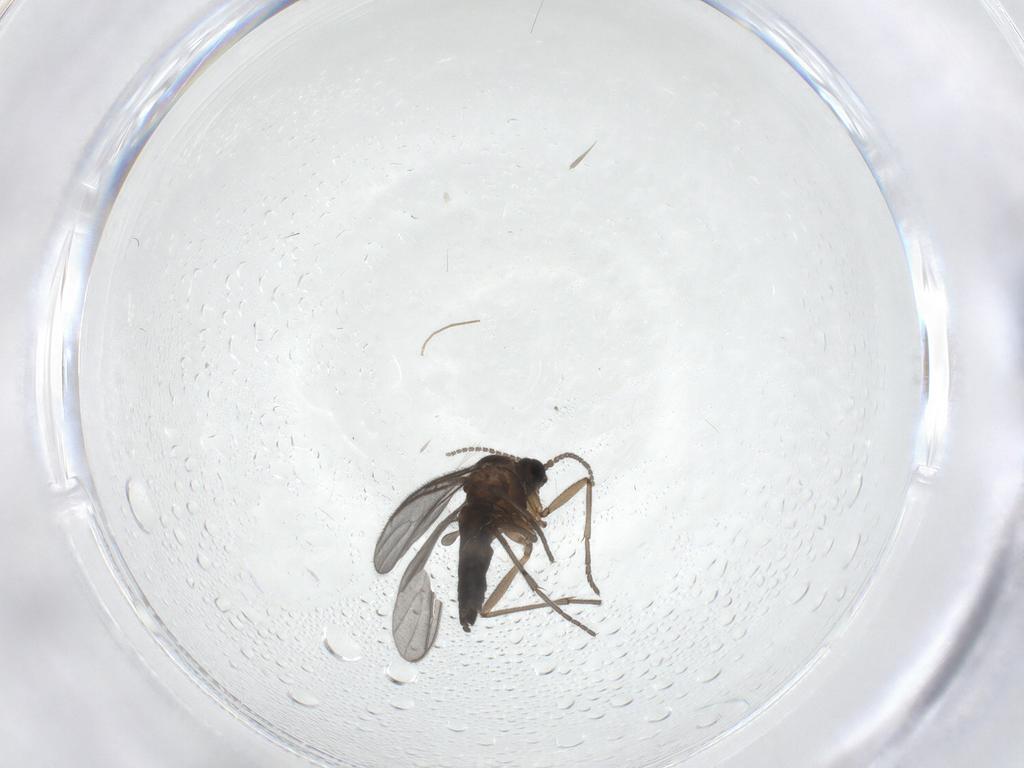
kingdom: Animalia
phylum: Arthropoda
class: Insecta
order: Diptera
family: Sciaridae
